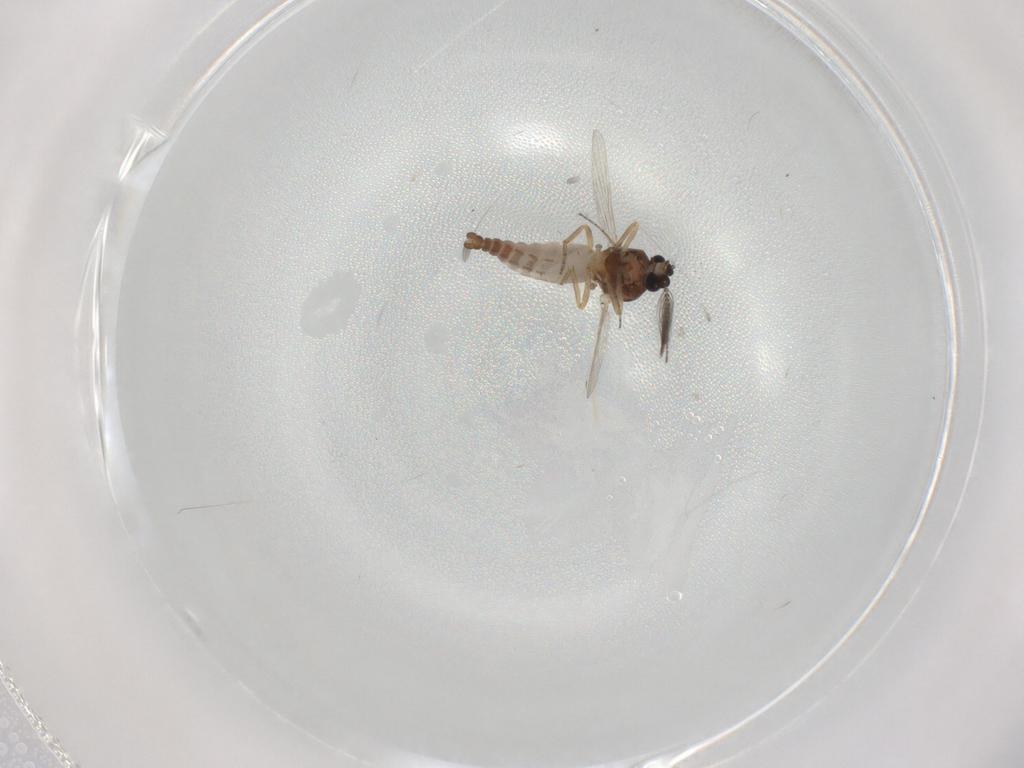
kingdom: Animalia
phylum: Arthropoda
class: Insecta
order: Diptera
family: Ceratopogonidae
